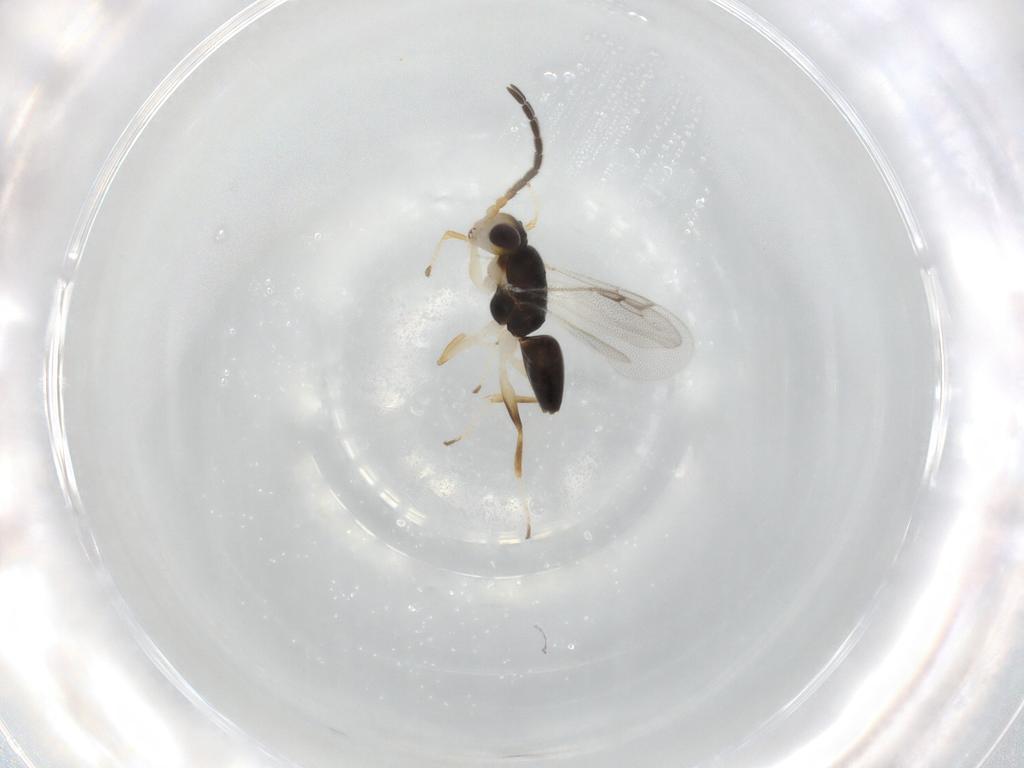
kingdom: Animalia
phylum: Arthropoda
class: Insecta
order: Hymenoptera
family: Dryinidae
